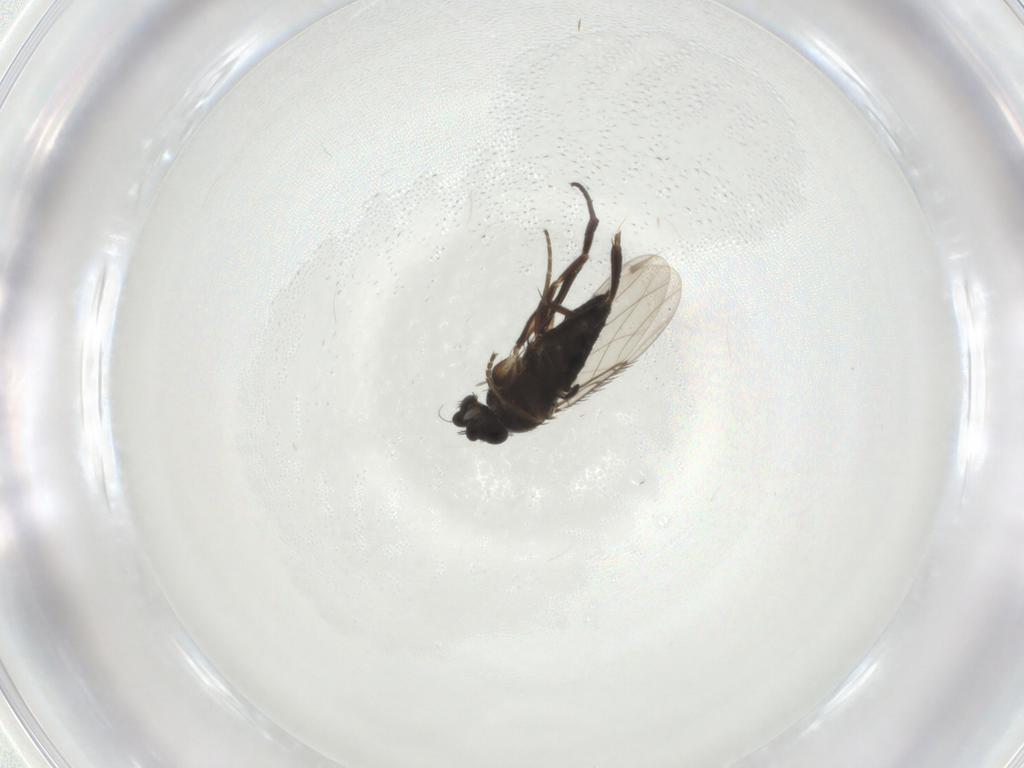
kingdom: Animalia
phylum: Arthropoda
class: Insecta
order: Diptera
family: Phoridae
